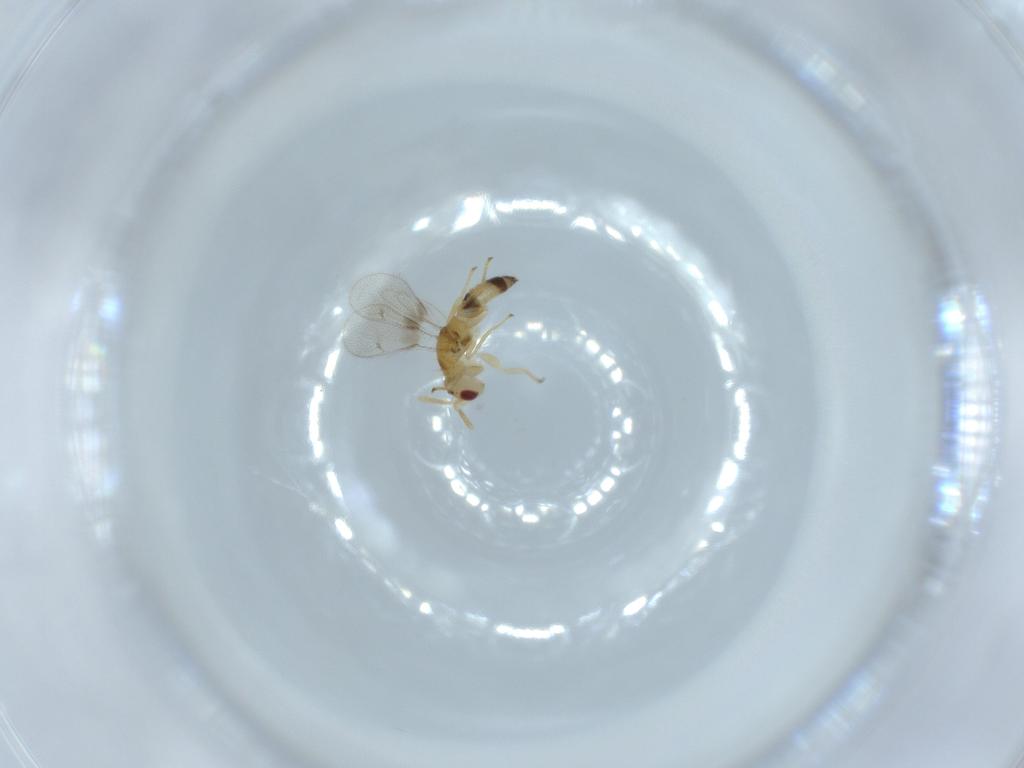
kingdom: Animalia
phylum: Arthropoda
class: Insecta
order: Hymenoptera
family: Torymidae
